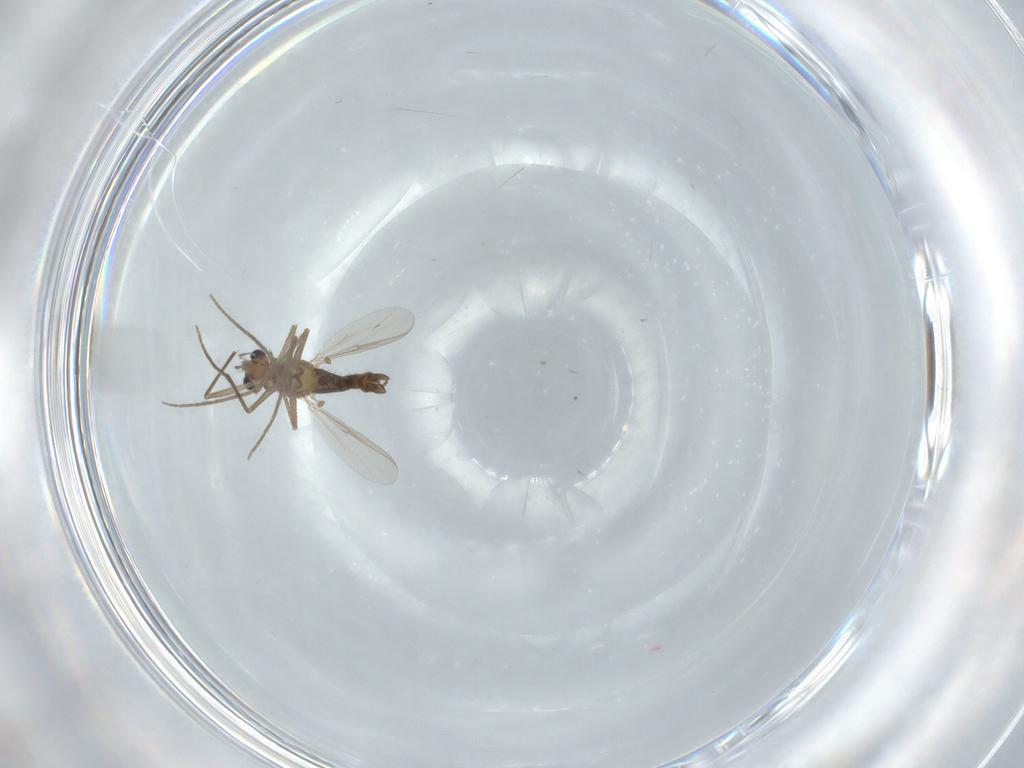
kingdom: Animalia
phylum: Arthropoda
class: Insecta
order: Diptera
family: Chironomidae
